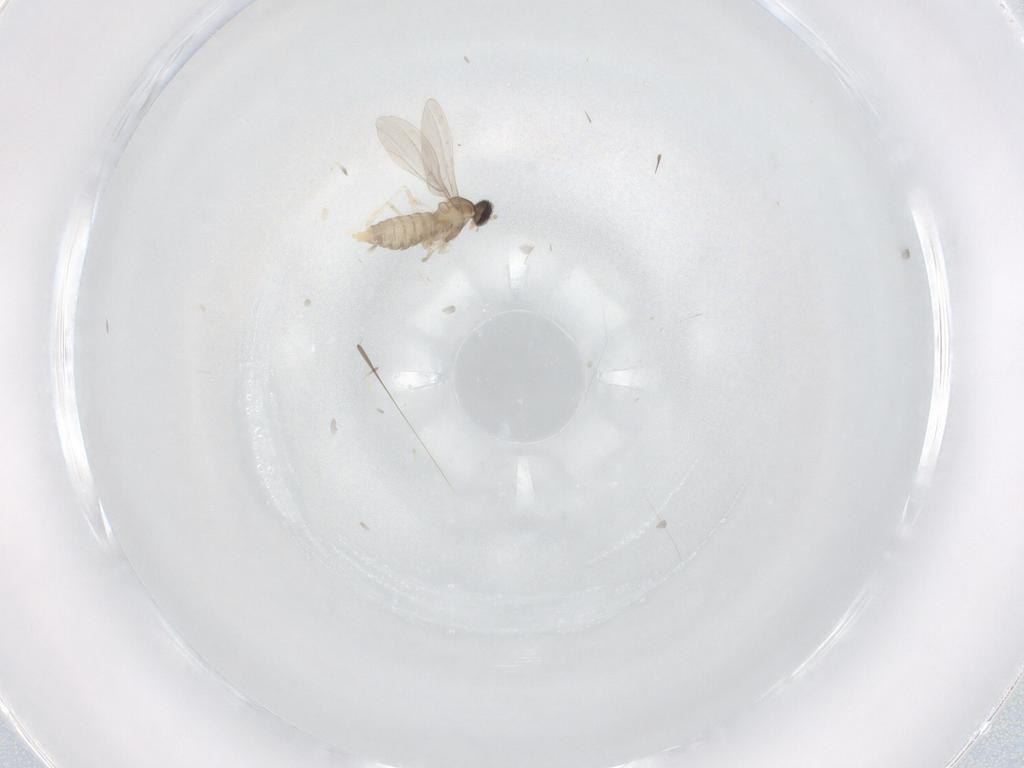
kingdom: Animalia
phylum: Arthropoda
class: Insecta
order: Diptera
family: Cecidomyiidae
